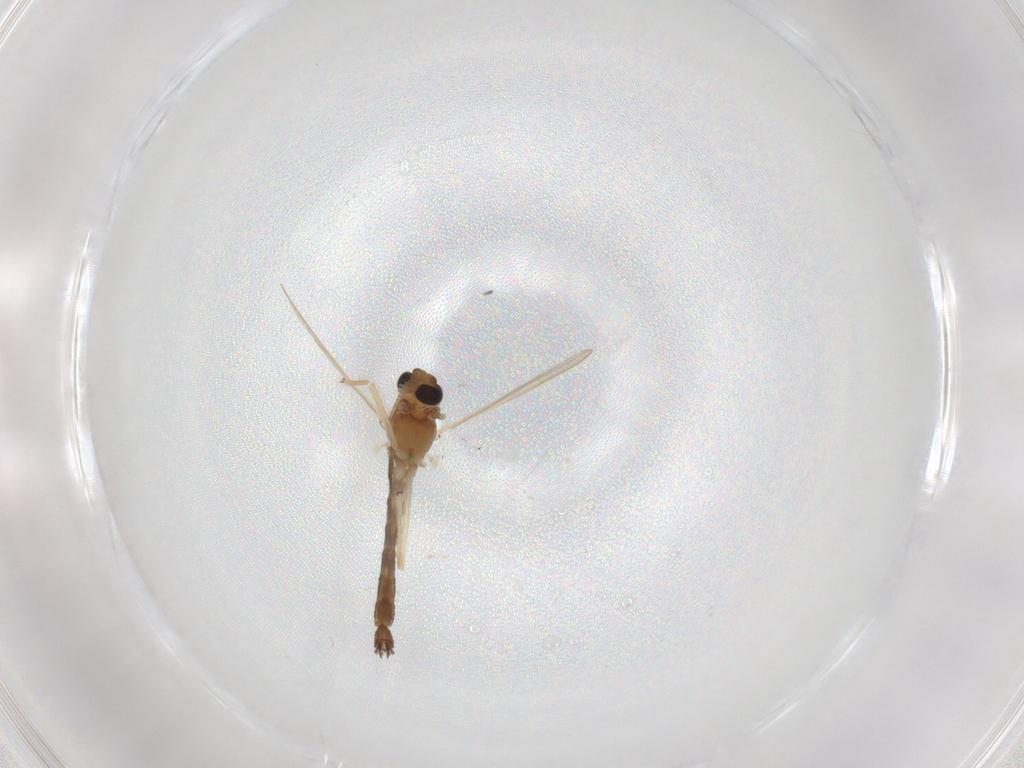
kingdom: Animalia
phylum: Arthropoda
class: Insecta
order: Diptera
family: Chironomidae
